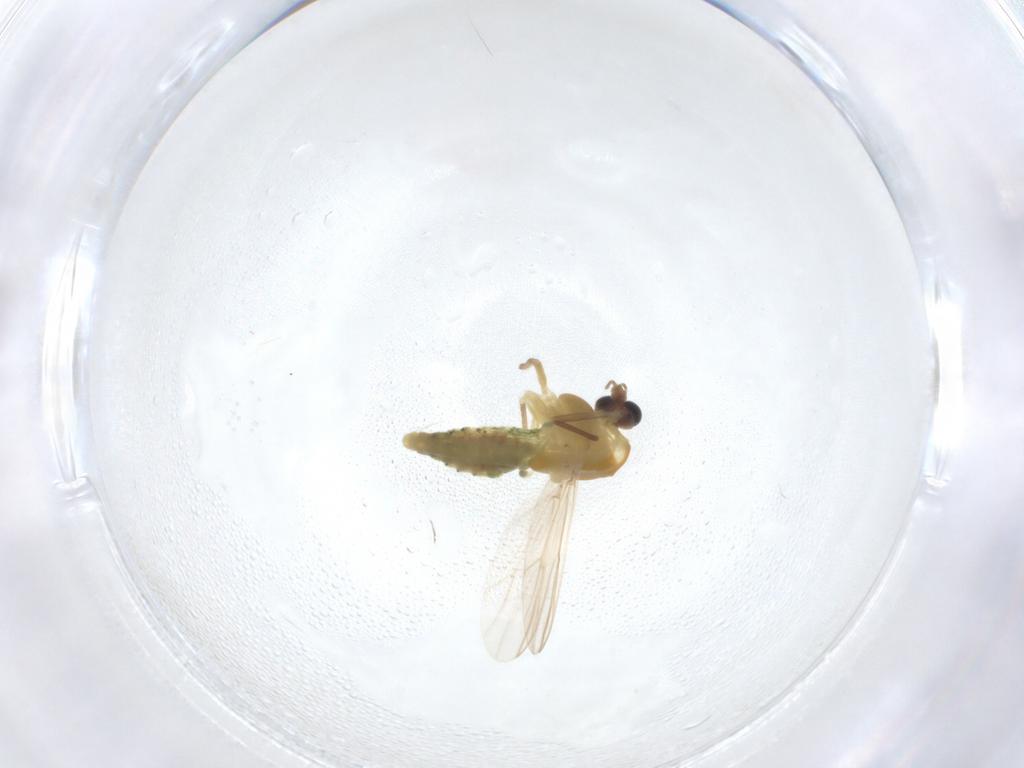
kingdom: Animalia
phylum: Arthropoda
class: Insecta
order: Diptera
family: Chironomidae
